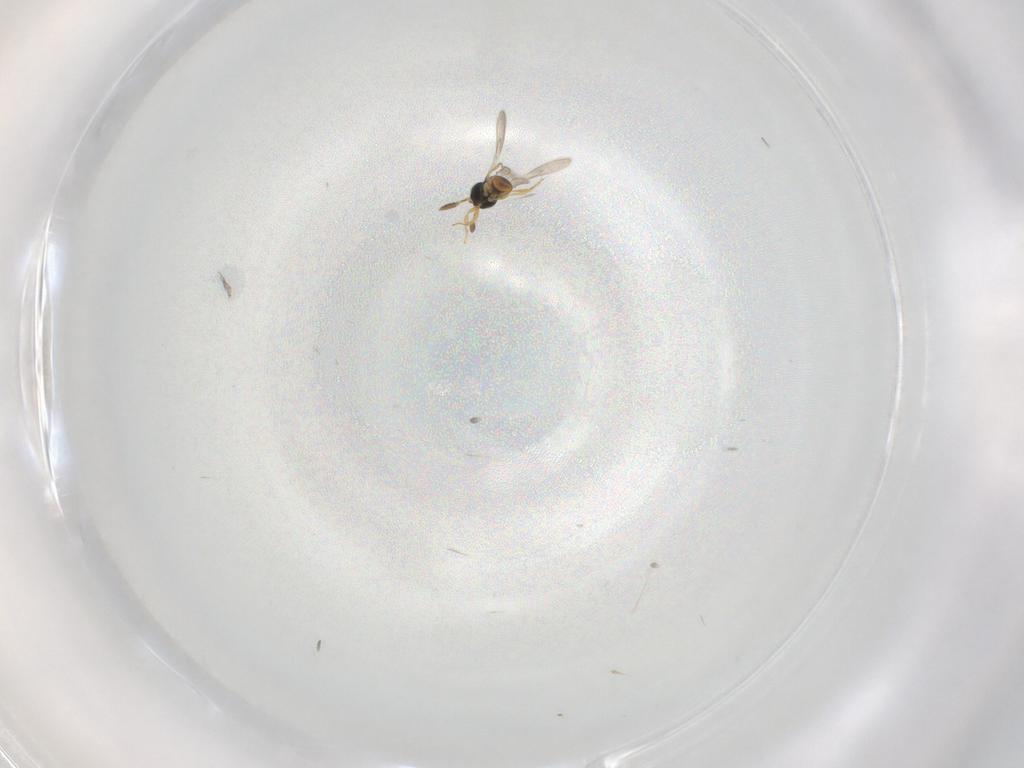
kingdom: Animalia
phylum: Arthropoda
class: Insecta
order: Hymenoptera
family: Scelionidae
